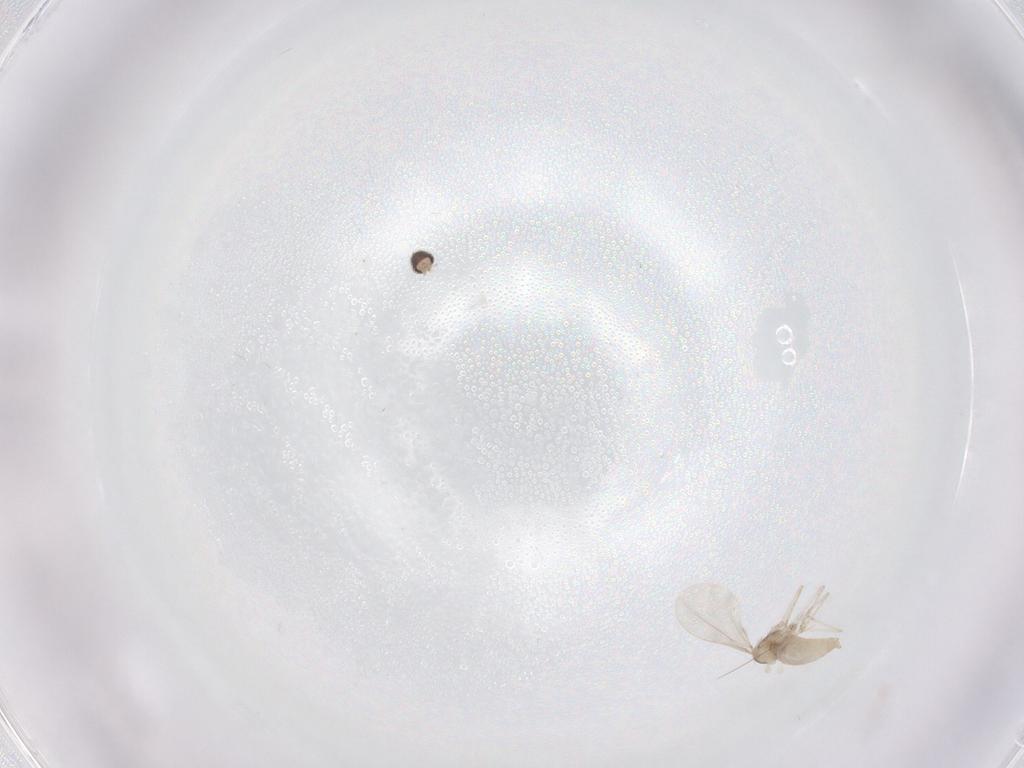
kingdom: Animalia
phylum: Arthropoda
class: Insecta
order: Diptera
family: Cecidomyiidae
